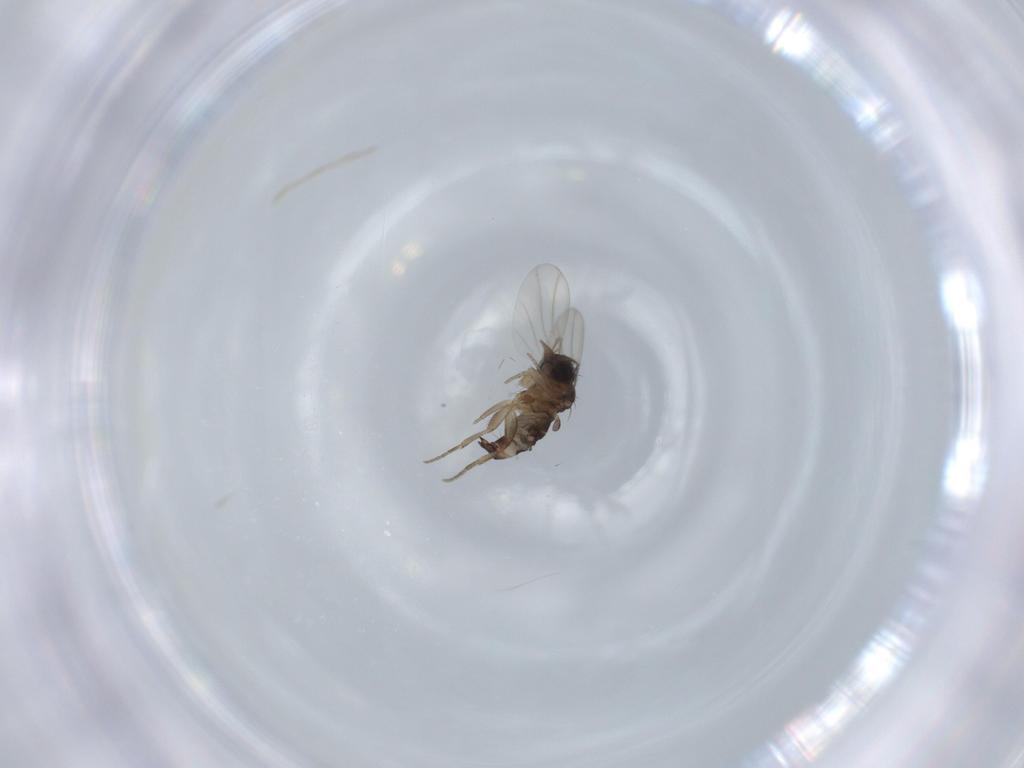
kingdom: Animalia
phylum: Arthropoda
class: Insecta
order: Diptera
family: Phoridae
